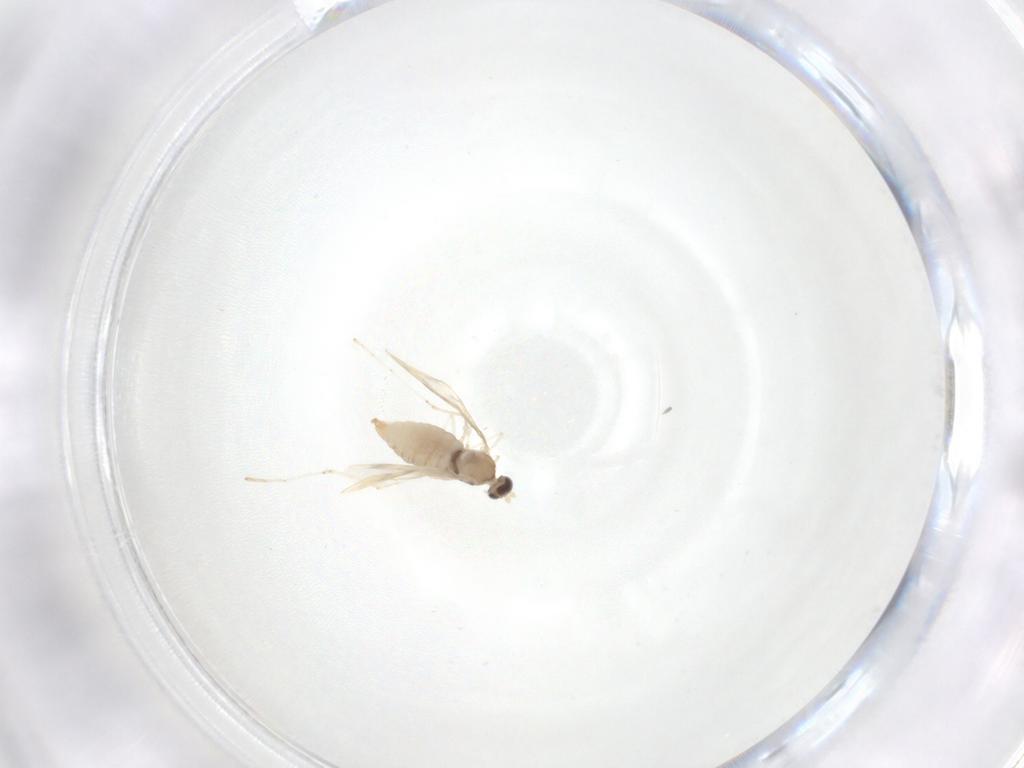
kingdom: Animalia
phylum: Arthropoda
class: Insecta
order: Diptera
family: Cecidomyiidae
